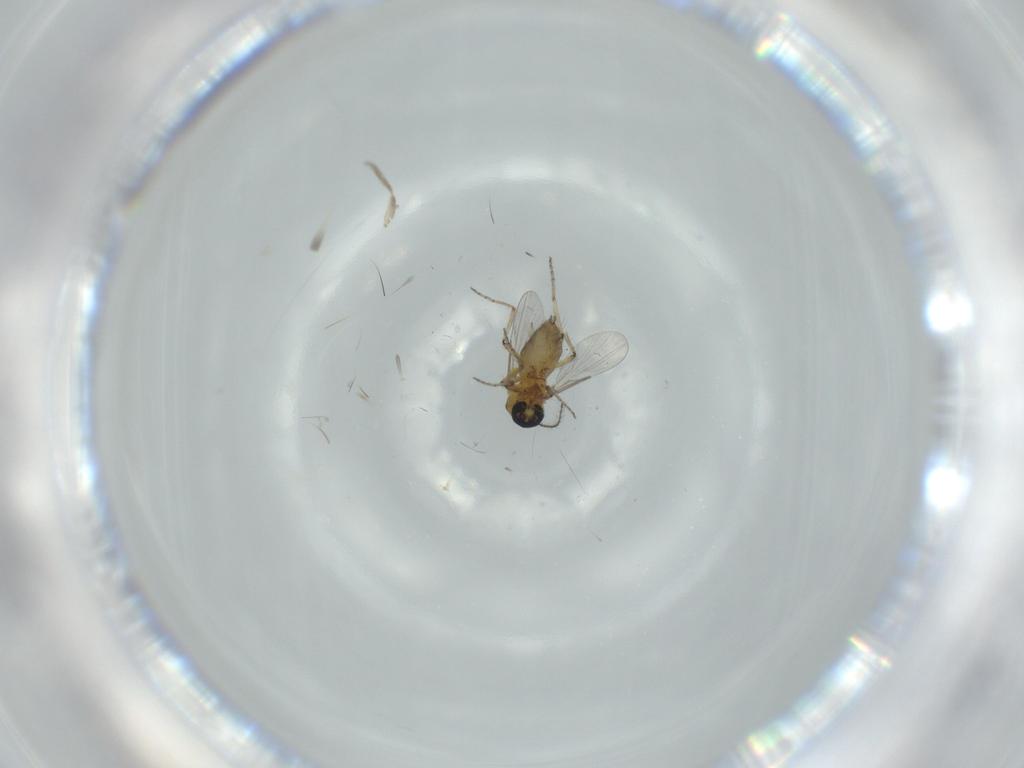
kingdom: Animalia
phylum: Arthropoda
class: Insecta
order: Diptera
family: Ceratopogonidae
